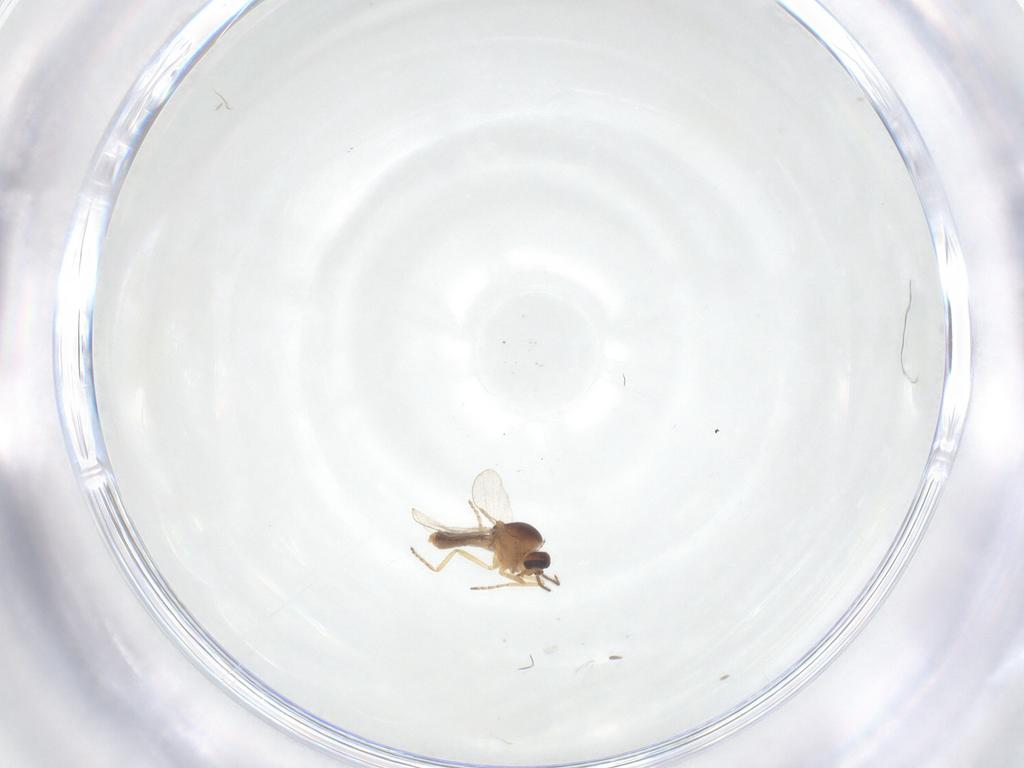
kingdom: Animalia
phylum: Arthropoda
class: Insecta
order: Diptera
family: Ceratopogonidae
